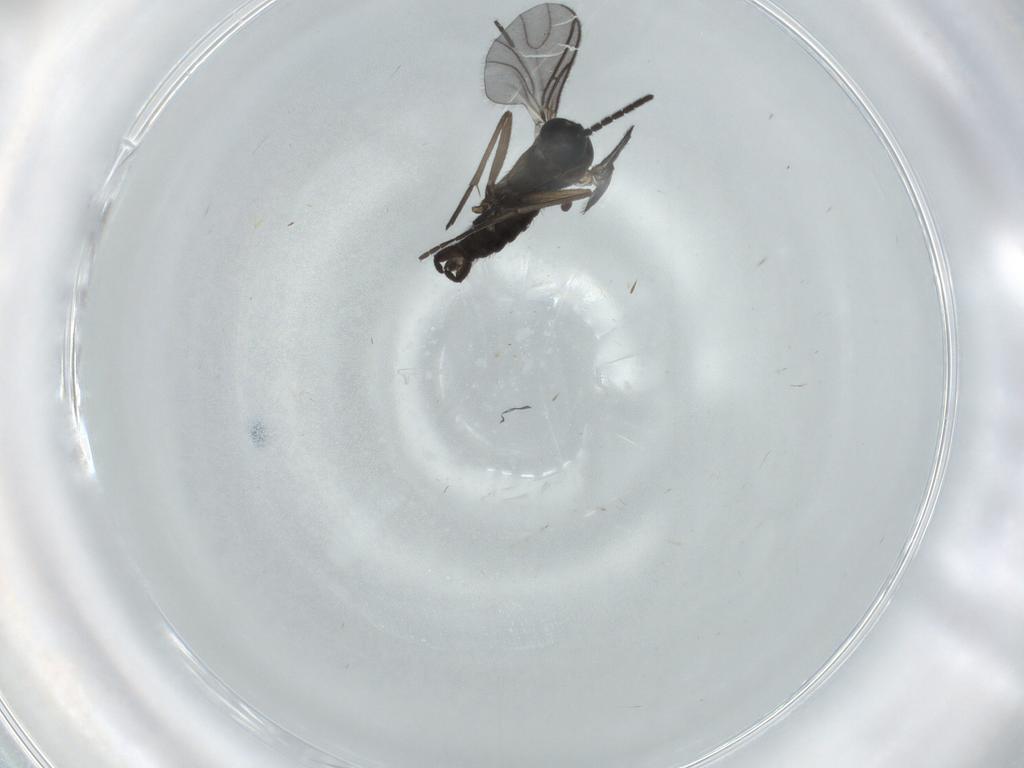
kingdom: Animalia
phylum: Arthropoda
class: Insecta
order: Diptera
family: Sciaridae
